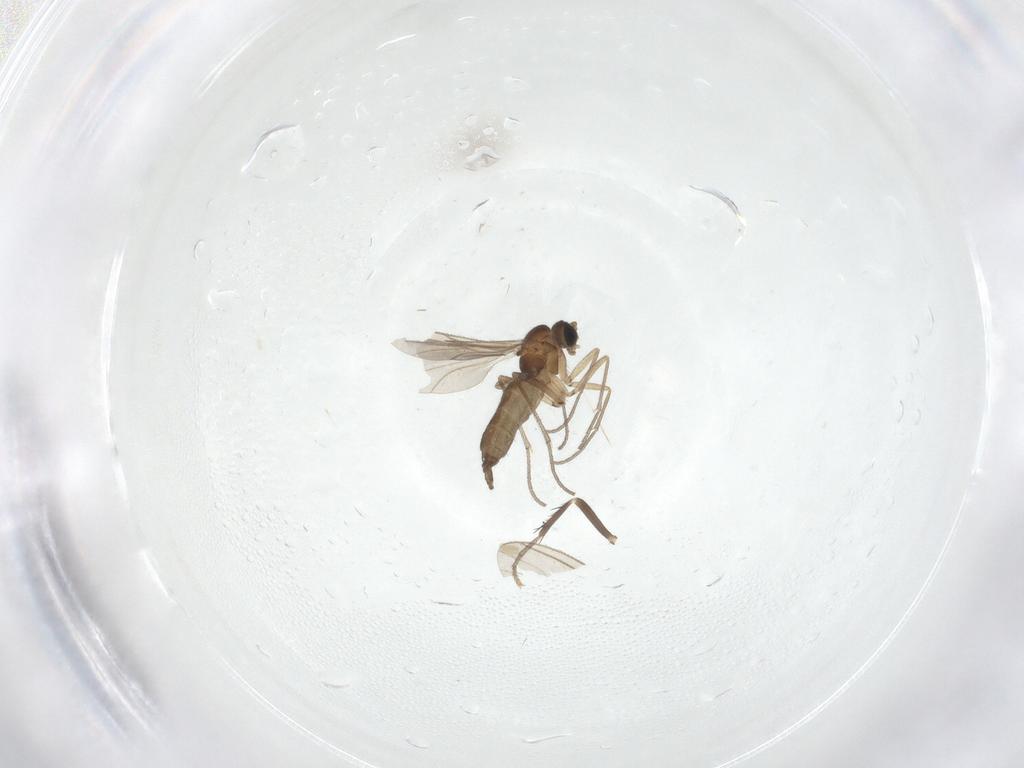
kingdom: Animalia
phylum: Arthropoda
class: Insecta
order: Diptera
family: Sciaridae
